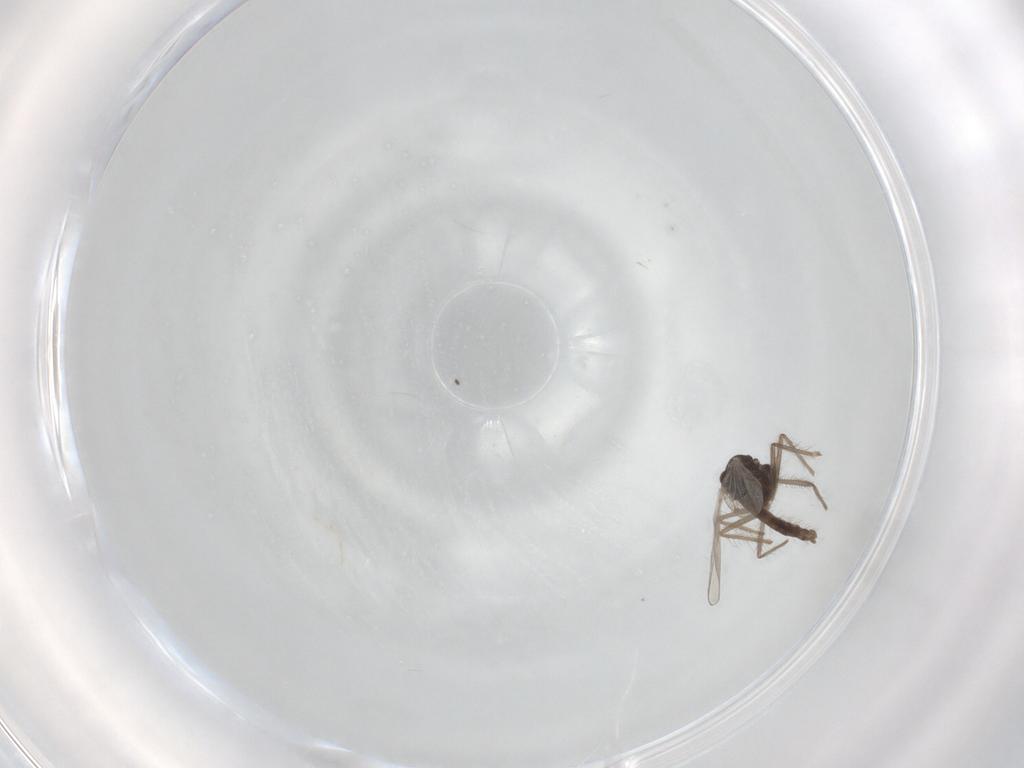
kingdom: Animalia
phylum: Arthropoda
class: Insecta
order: Diptera
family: Chironomidae
